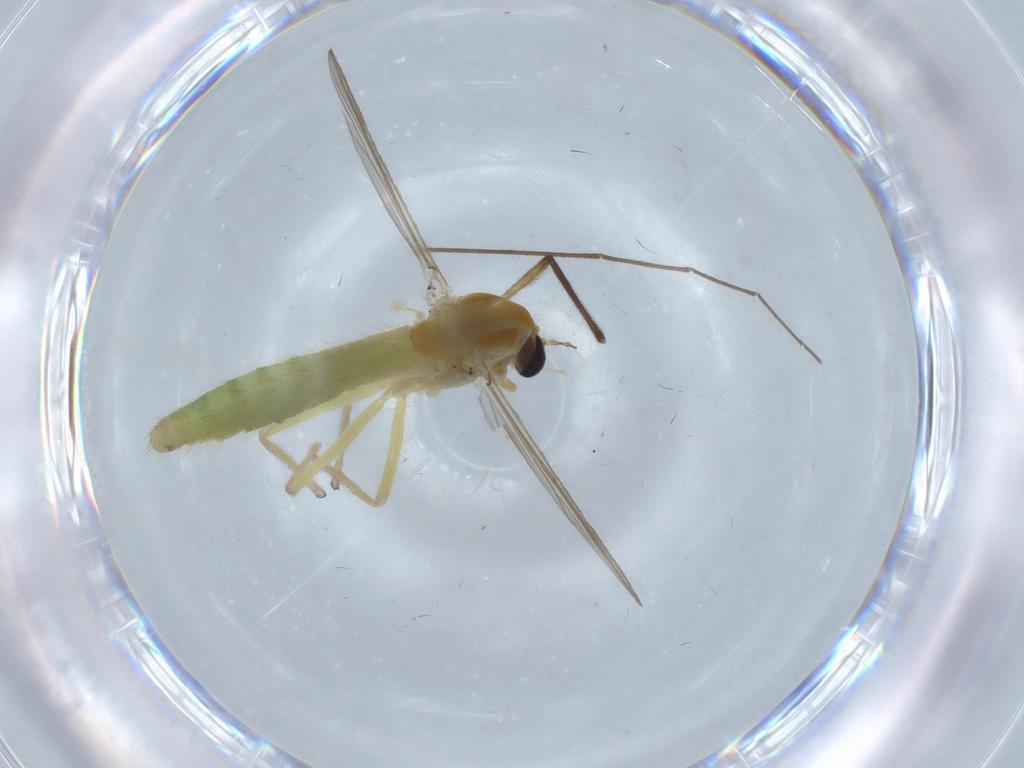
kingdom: Animalia
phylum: Arthropoda
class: Insecta
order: Diptera
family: Chironomidae
